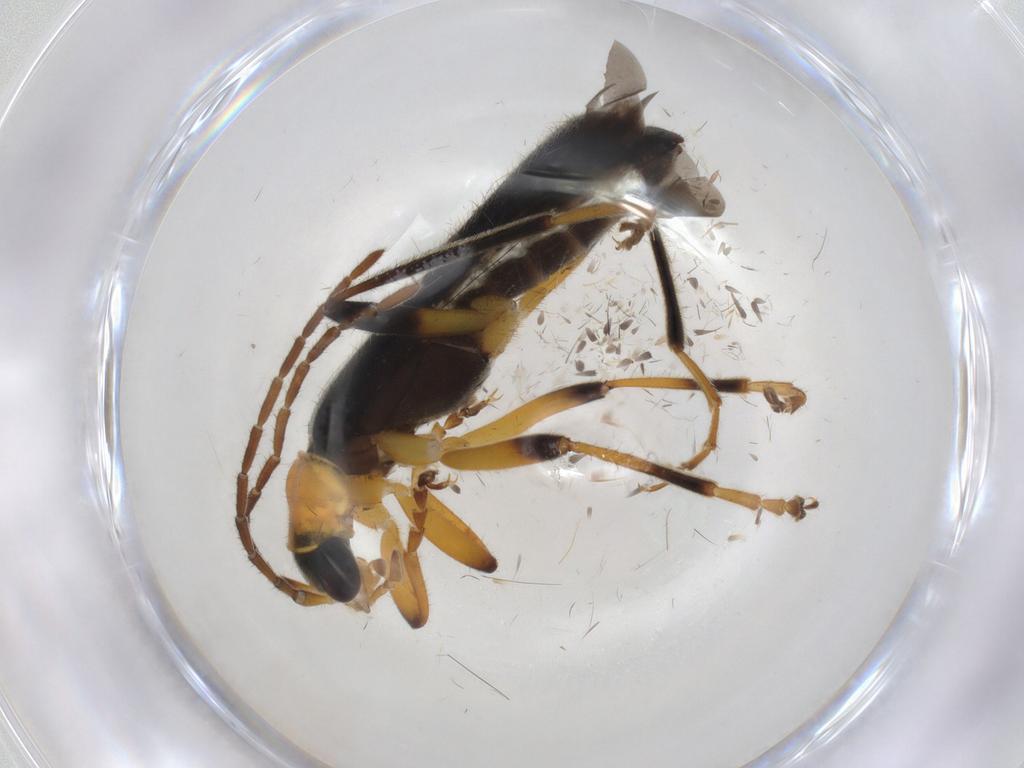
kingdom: Animalia
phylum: Arthropoda
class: Insecta
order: Coleoptera
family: Cantharidae
